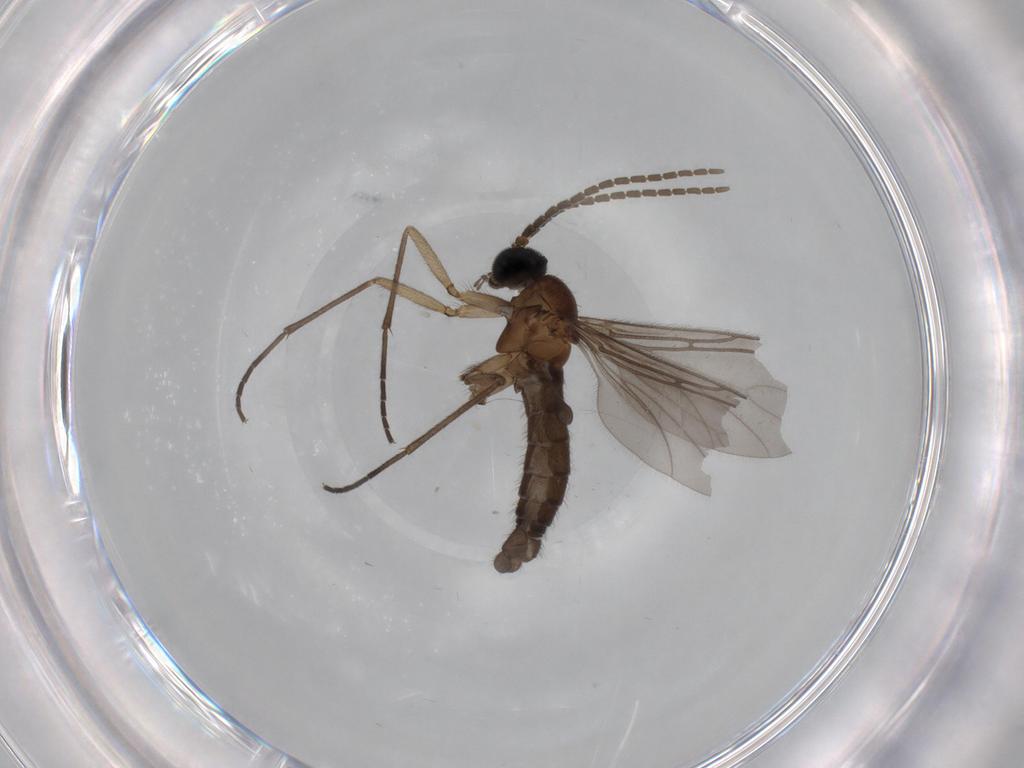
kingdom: Animalia
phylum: Arthropoda
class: Insecta
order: Diptera
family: Sciaridae
